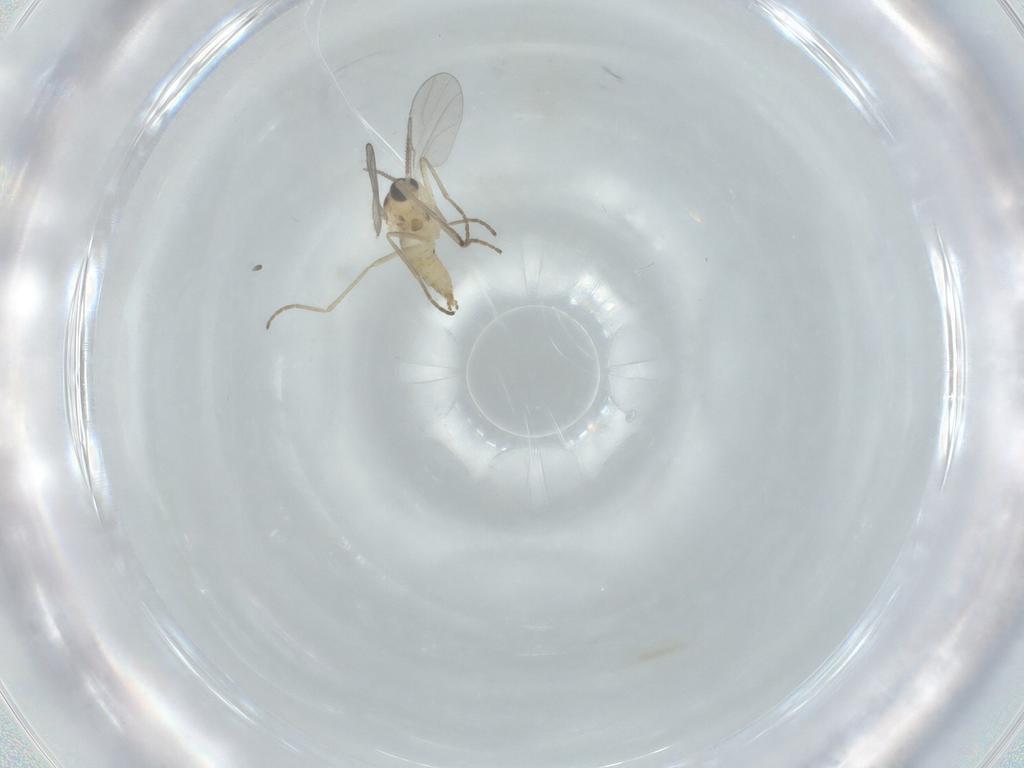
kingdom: Animalia
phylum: Arthropoda
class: Insecta
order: Diptera
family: Cecidomyiidae
